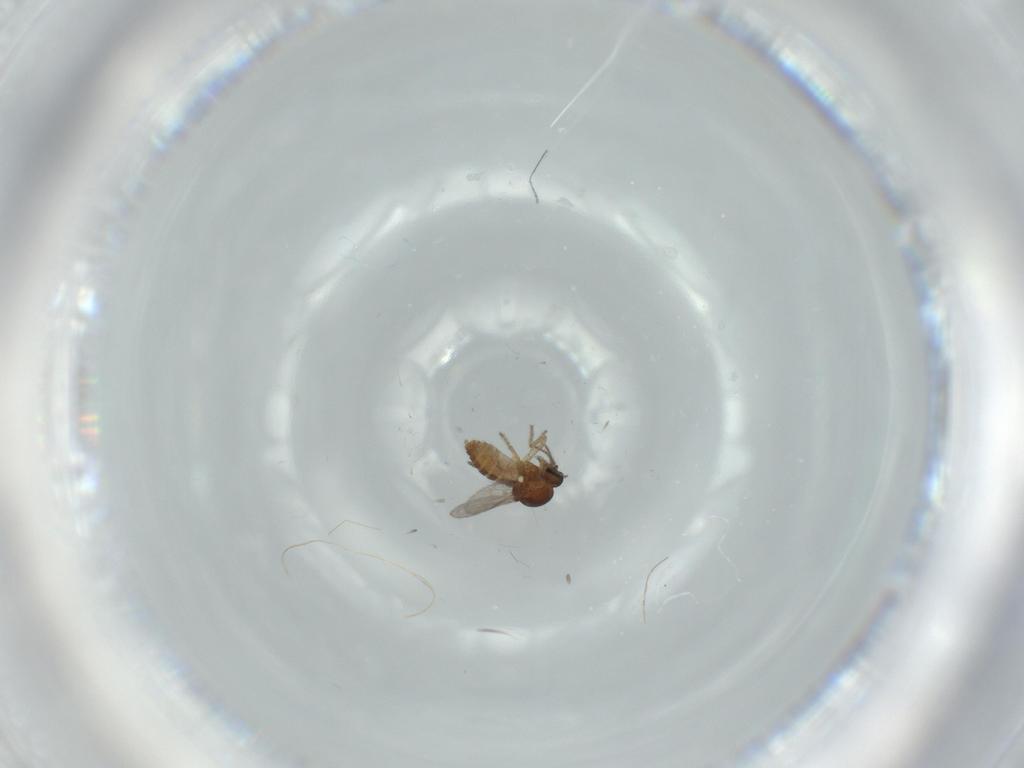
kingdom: Animalia
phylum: Arthropoda
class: Insecta
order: Diptera
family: Ceratopogonidae
